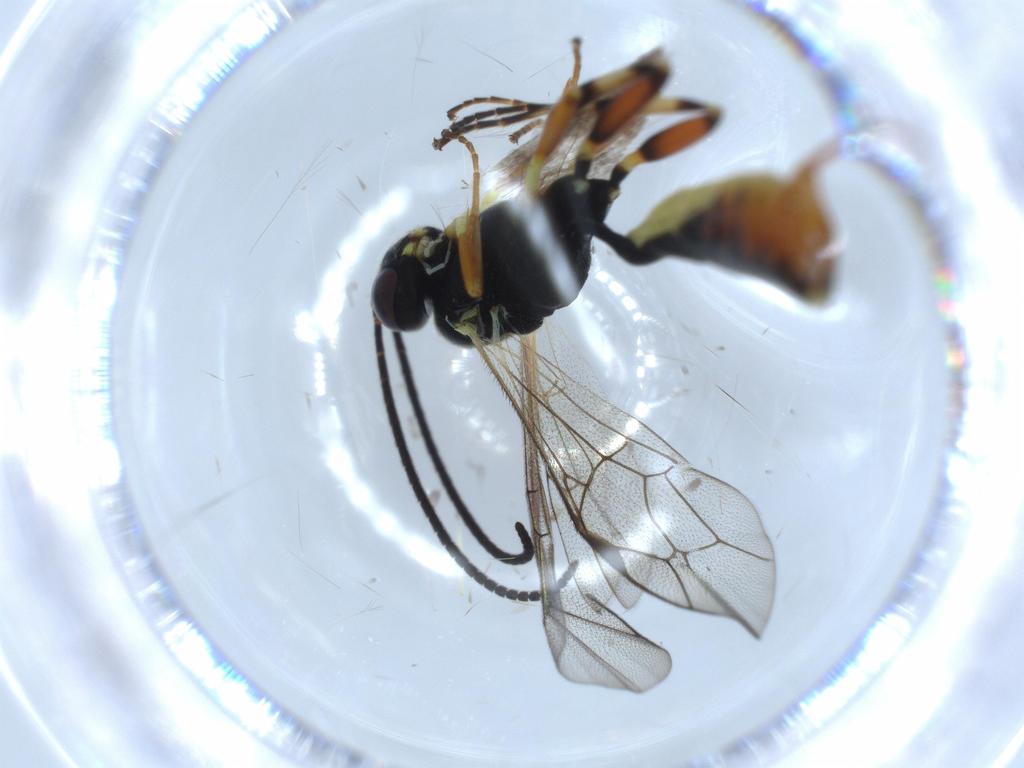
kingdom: Animalia
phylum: Arthropoda
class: Insecta
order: Hymenoptera
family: Ichneumonidae
